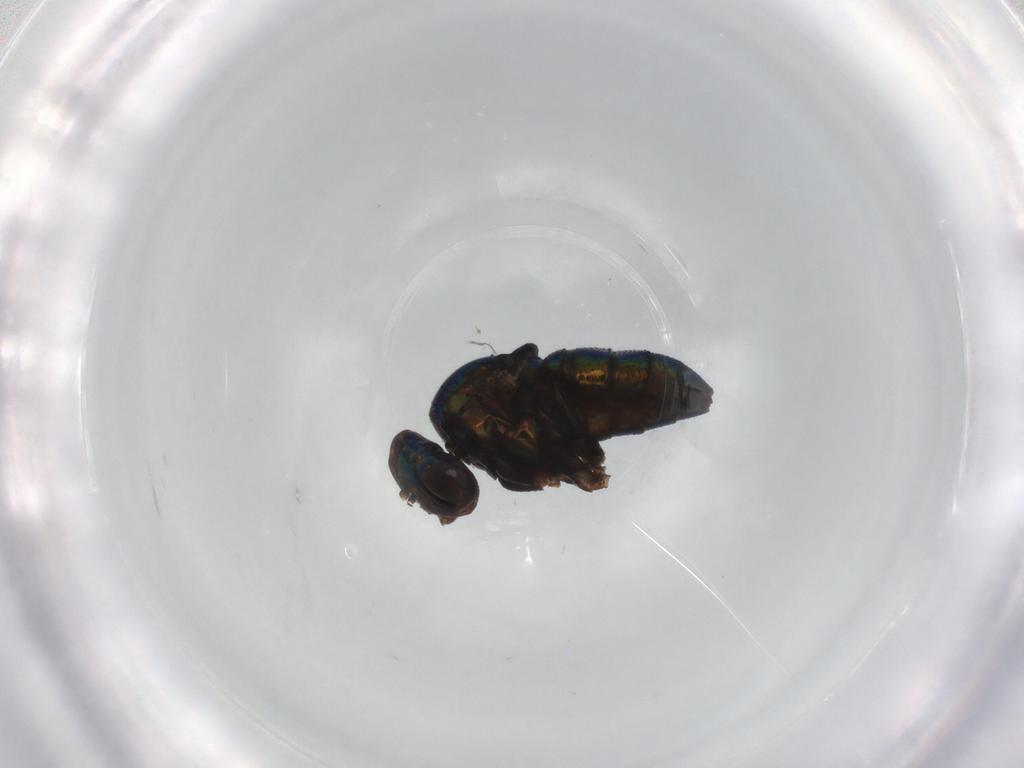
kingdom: Animalia
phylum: Arthropoda
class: Insecta
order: Diptera
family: Dolichopodidae
